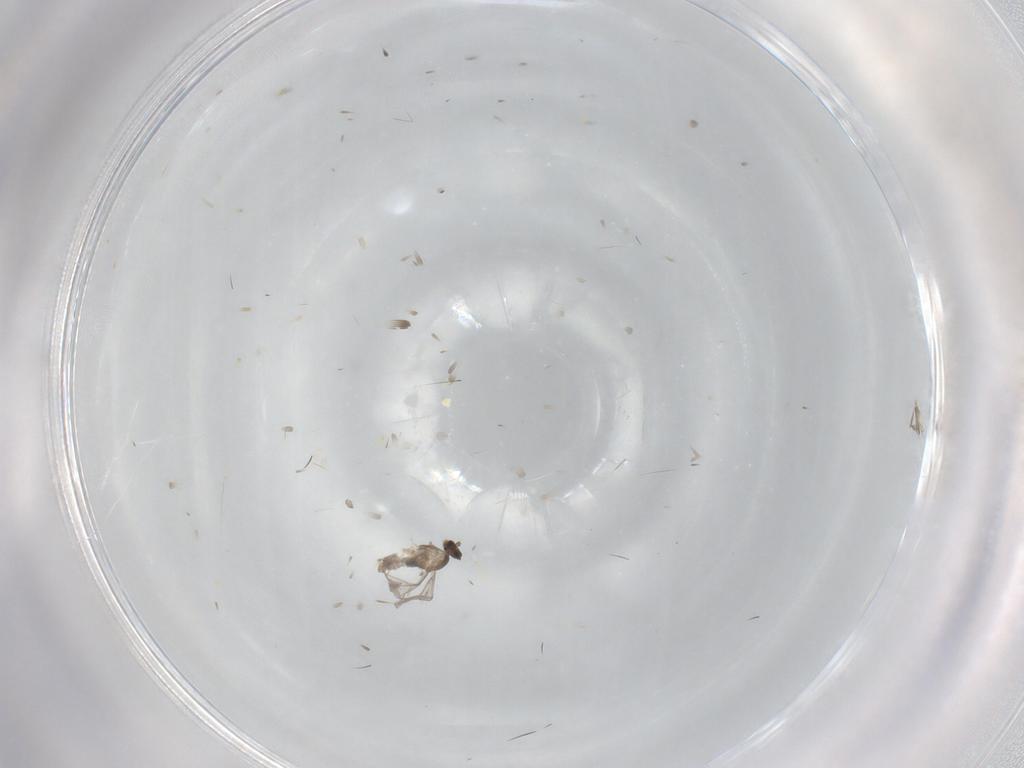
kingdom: Animalia
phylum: Arthropoda
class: Insecta
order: Diptera
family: Ceratopogonidae
